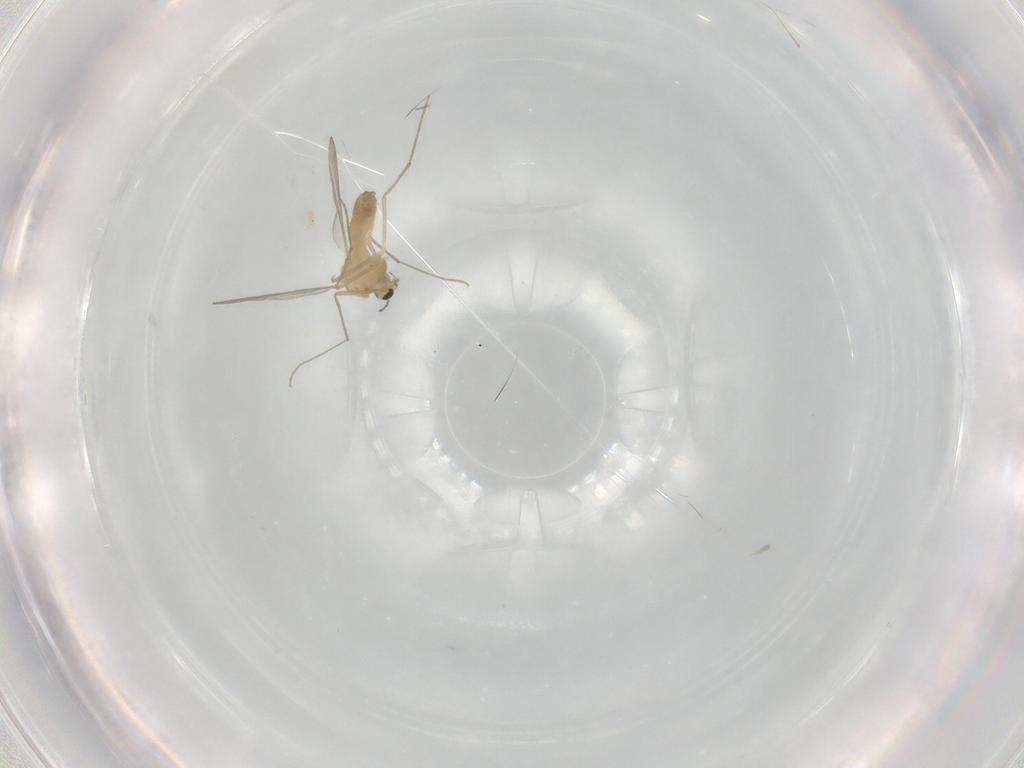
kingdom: Animalia
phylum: Arthropoda
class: Insecta
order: Diptera
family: Chironomidae
